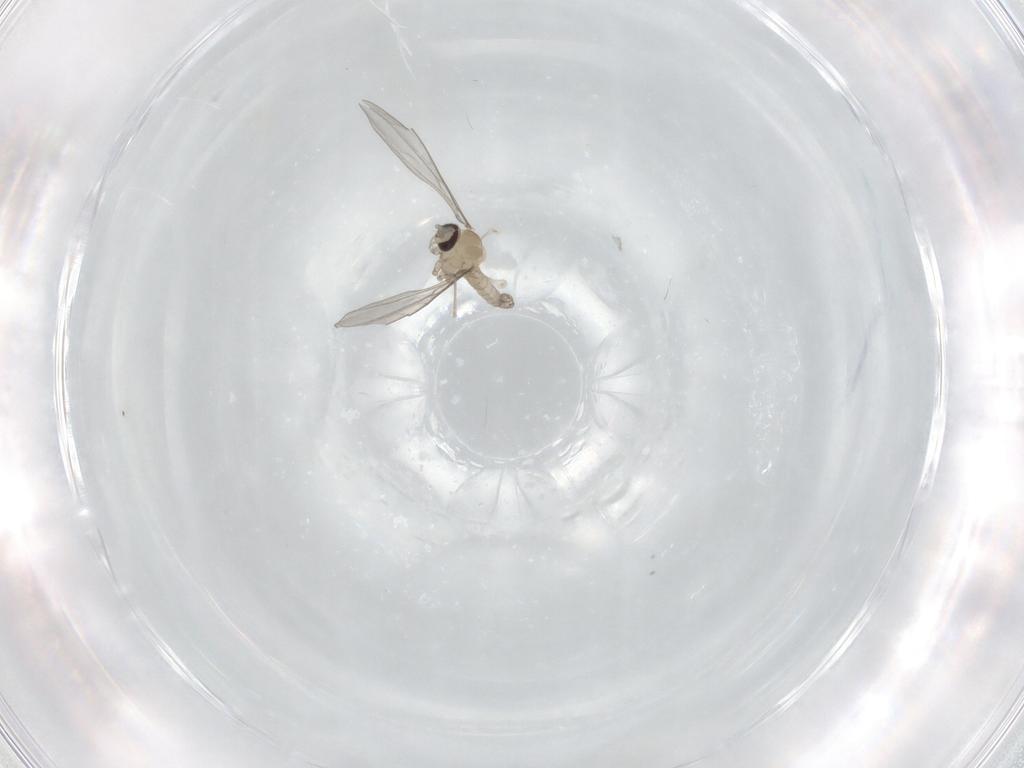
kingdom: Animalia
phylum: Arthropoda
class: Insecta
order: Diptera
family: Cecidomyiidae
